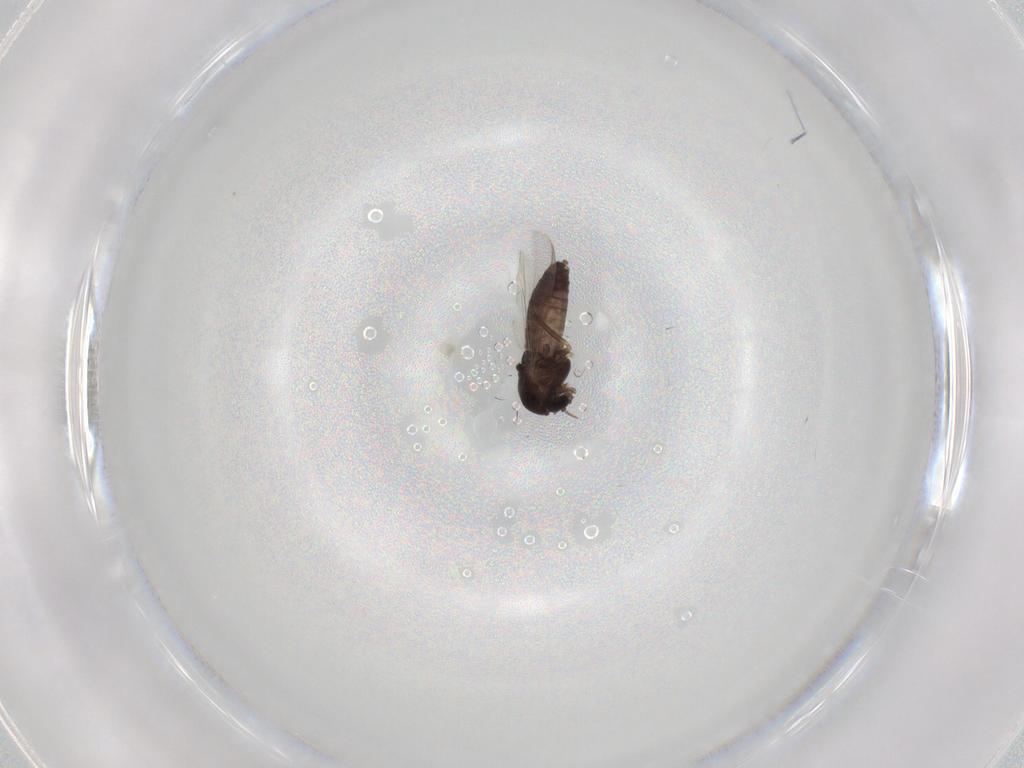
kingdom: Animalia
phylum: Arthropoda
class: Insecta
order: Diptera
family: Chironomidae
